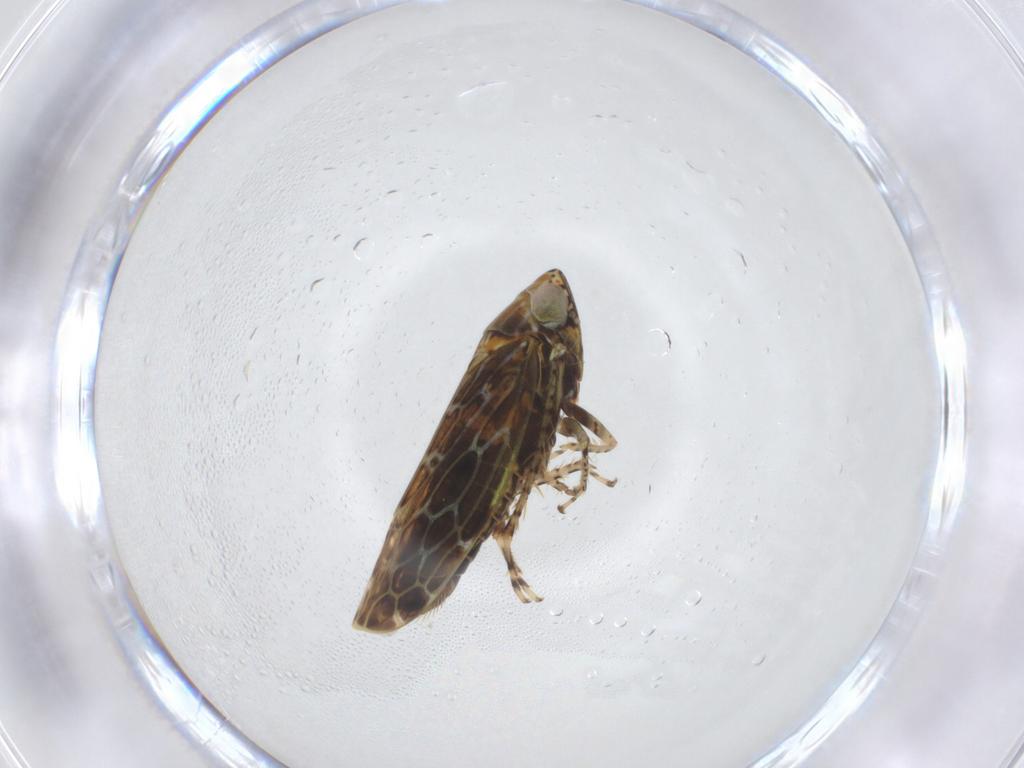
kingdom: Animalia
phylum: Arthropoda
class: Insecta
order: Hemiptera
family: Cicadellidae
